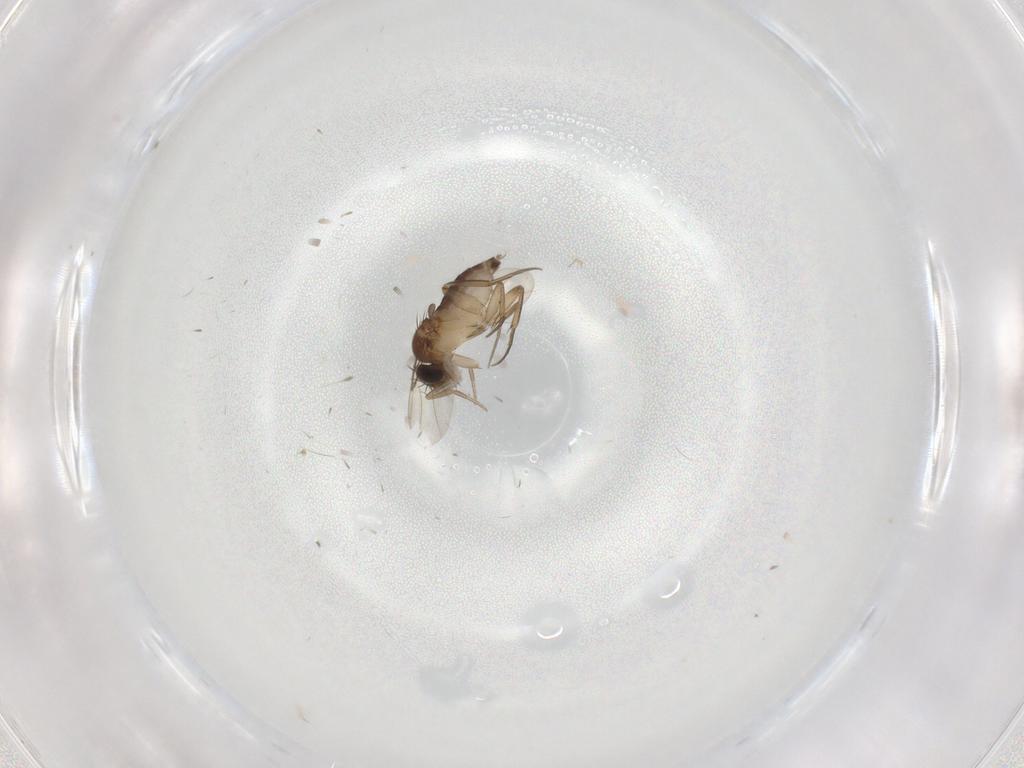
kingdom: Animalia
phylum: Arthropoda
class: Insecta
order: Diptera
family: Limoniidae
